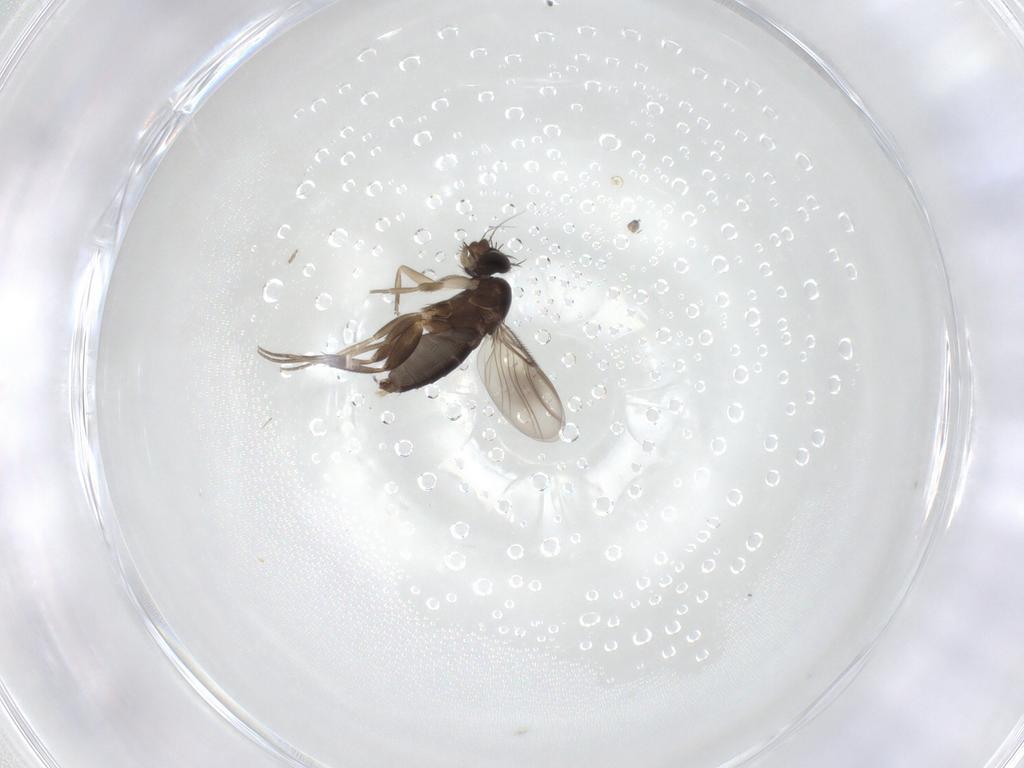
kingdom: Animalia
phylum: Arthropoda
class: Insecta
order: Diptera
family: Phoridae
